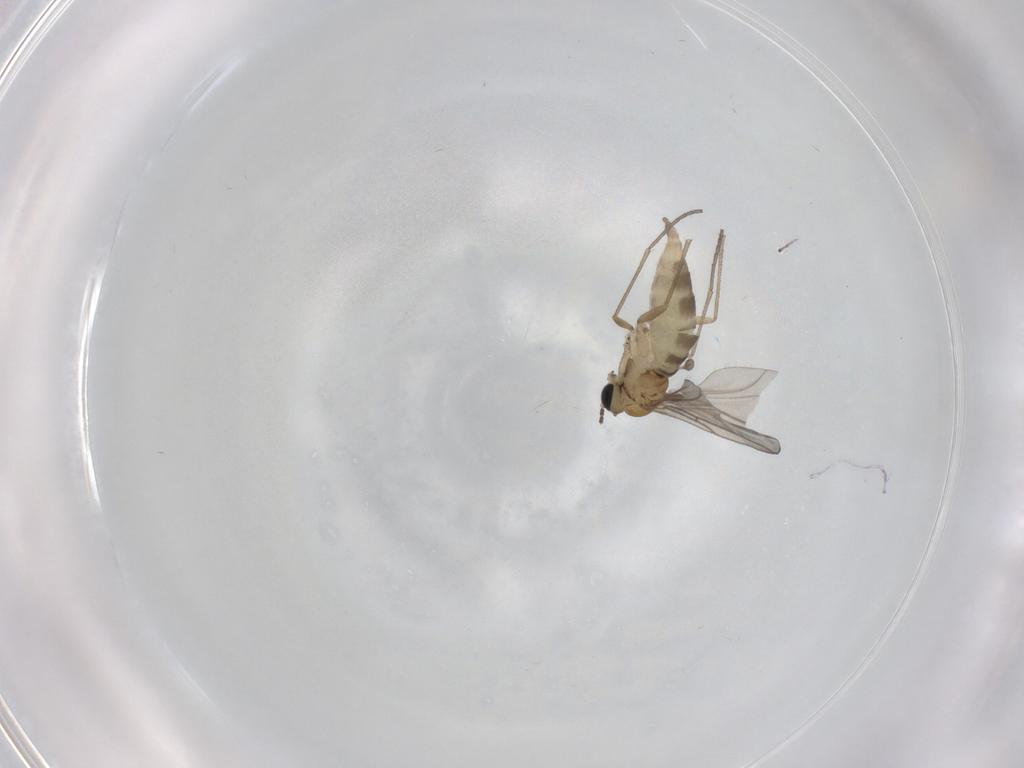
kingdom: Animalia
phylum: Arthropoda
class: Insecta
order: Diptera
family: Sciaridae
